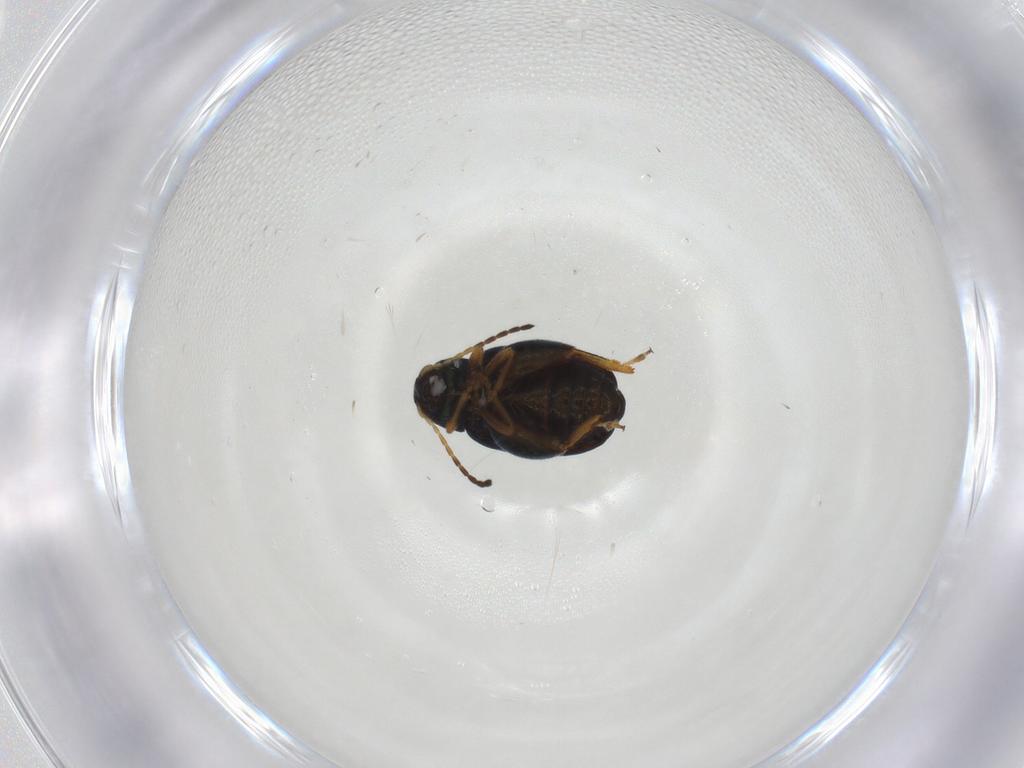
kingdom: Animalia
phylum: Arthropoda
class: Insecta
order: Coleoptera
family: Chrysomelidae
